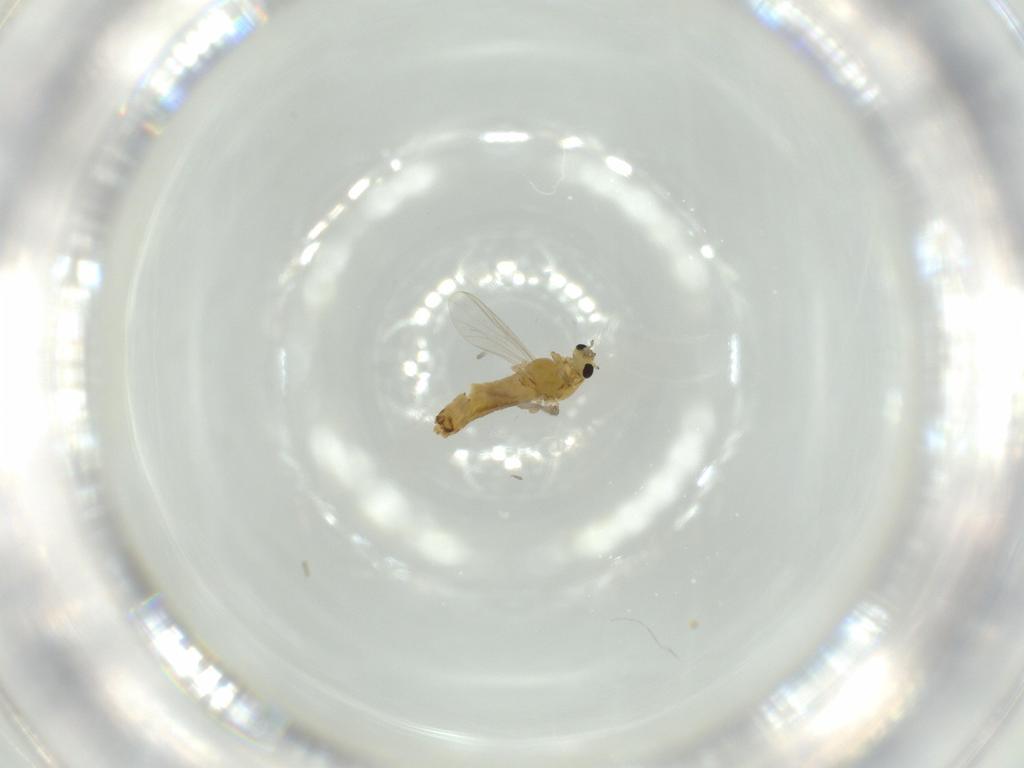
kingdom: Animalia
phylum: Arthropoda
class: Insecta
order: Diptera
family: Chironomidae
